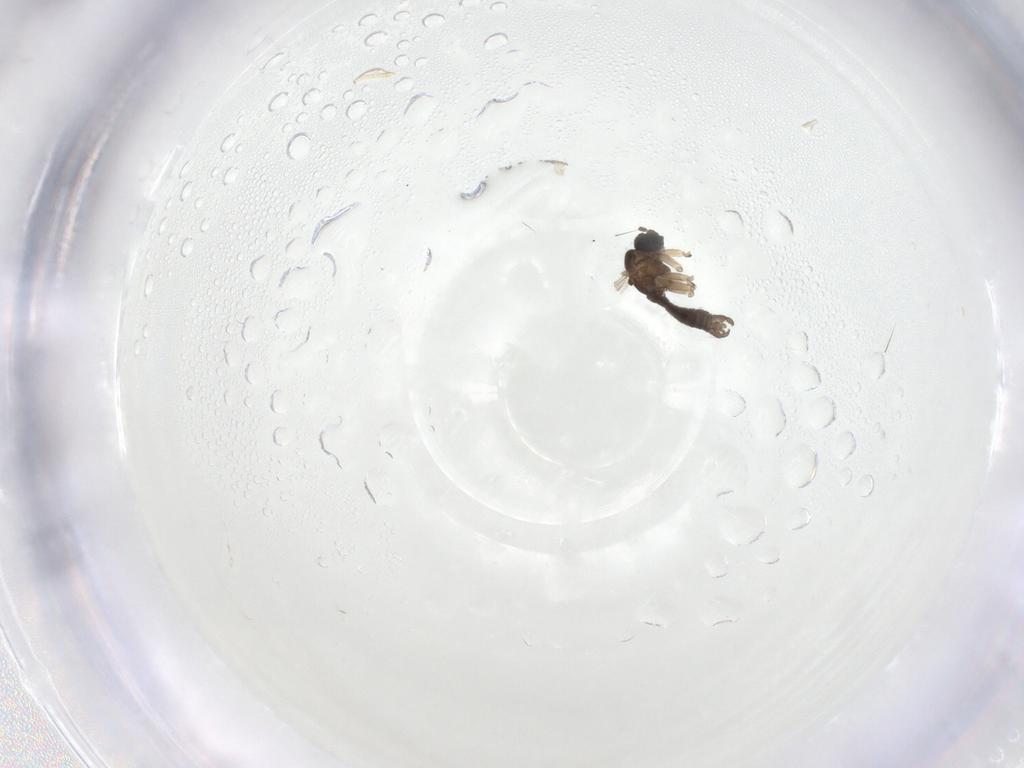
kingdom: Animalia
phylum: Arthropoda
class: Insecta
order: Diptera
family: Sciaridae
